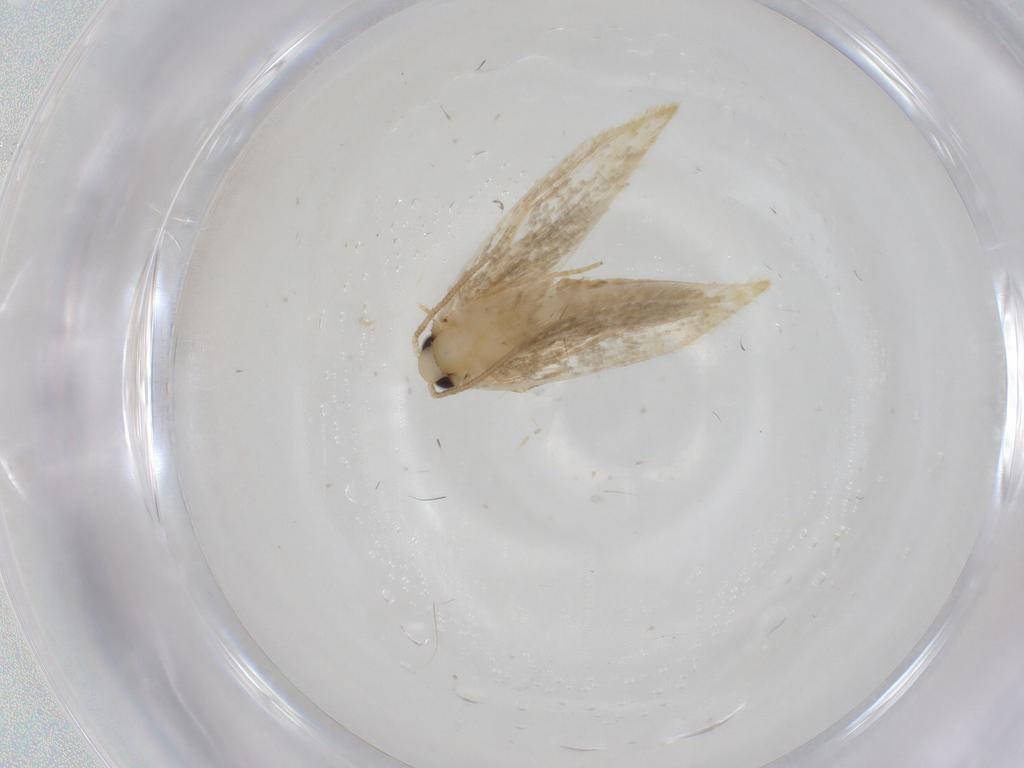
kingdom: Animalia
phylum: Arthropoda
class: Insecta
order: Lepidoptera
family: Tineidae
